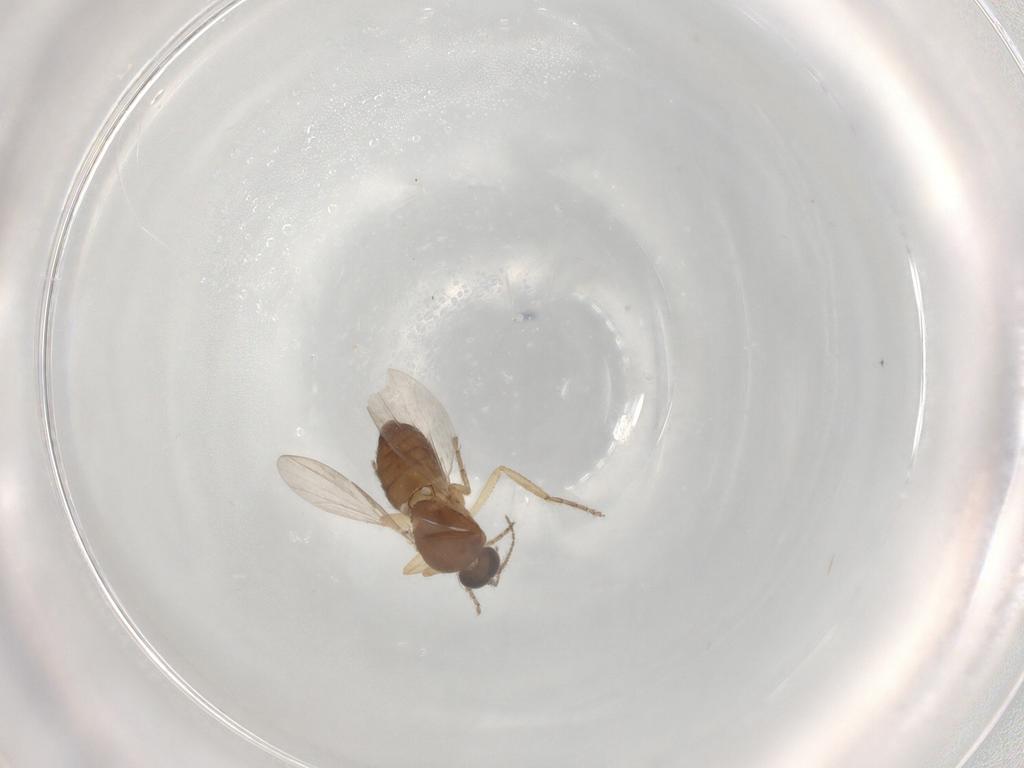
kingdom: Animalia
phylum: Arthropoda
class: Insecta
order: Diptera
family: Ceratopogonidae
